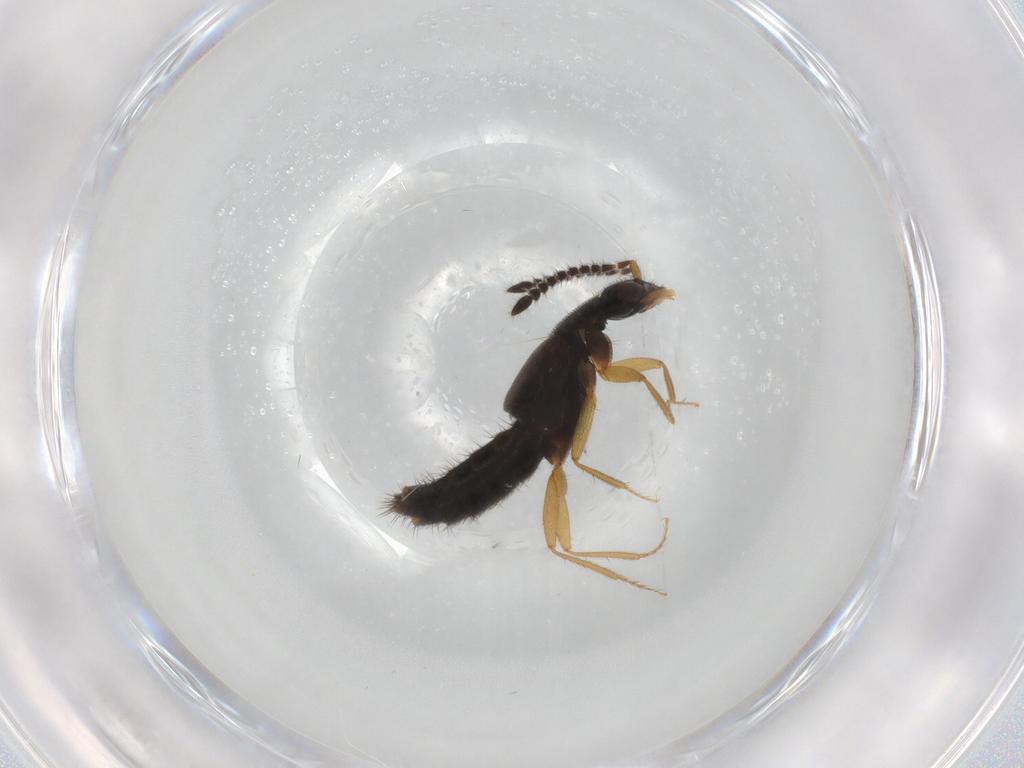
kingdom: Animalia
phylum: Arthropoda
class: Insecta
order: Coleoptera
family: Staphylinidae
